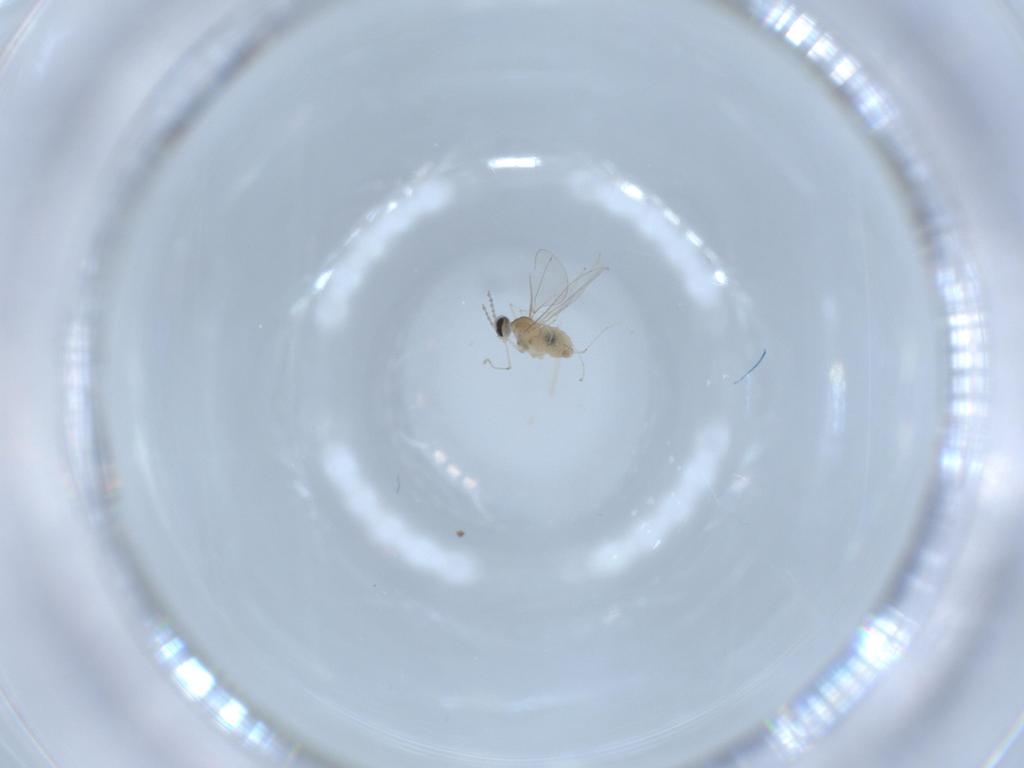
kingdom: Animalia
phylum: Arthropoda
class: Insecta
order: Diptera
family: Cecidomyiidae
